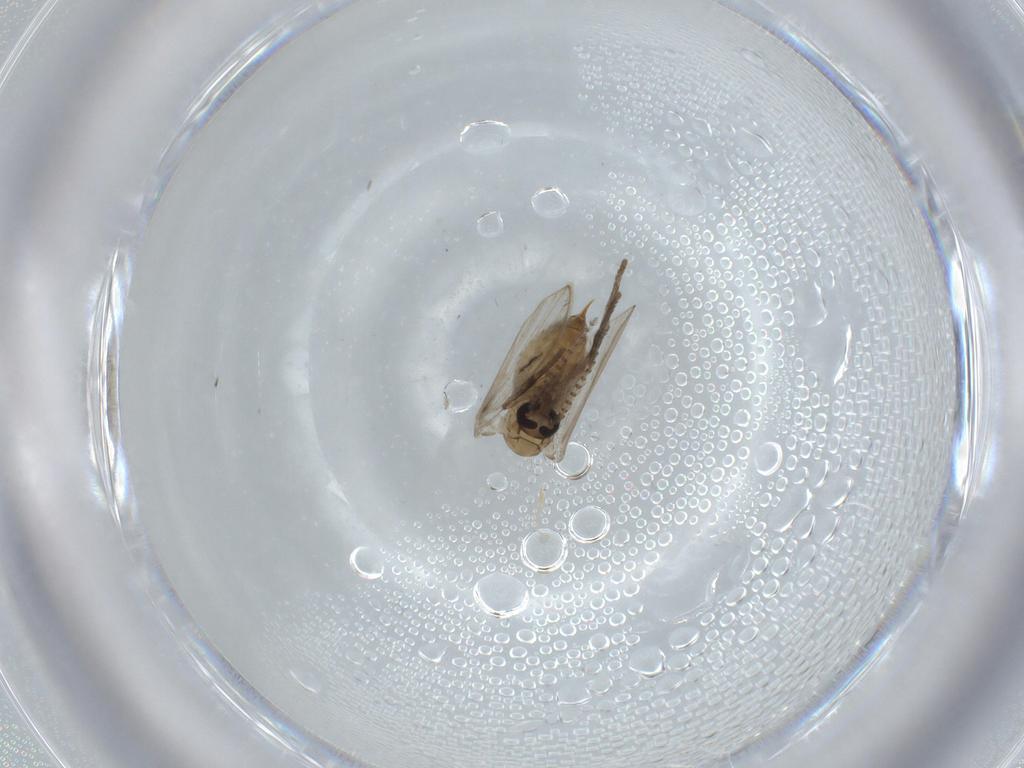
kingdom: Animalia
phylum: Arthropoda
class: Insecta
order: Diptera
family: Psychodidae
